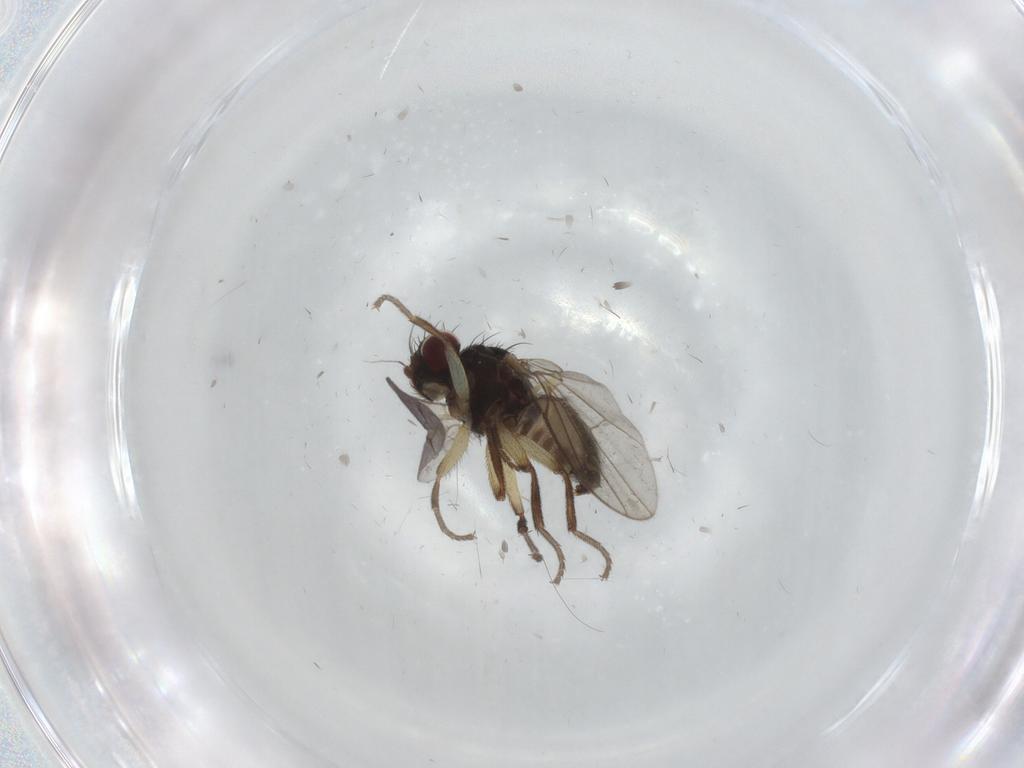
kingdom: Animalia
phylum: Arthropoda
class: Insecta
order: Diptera
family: Agromyzidae
